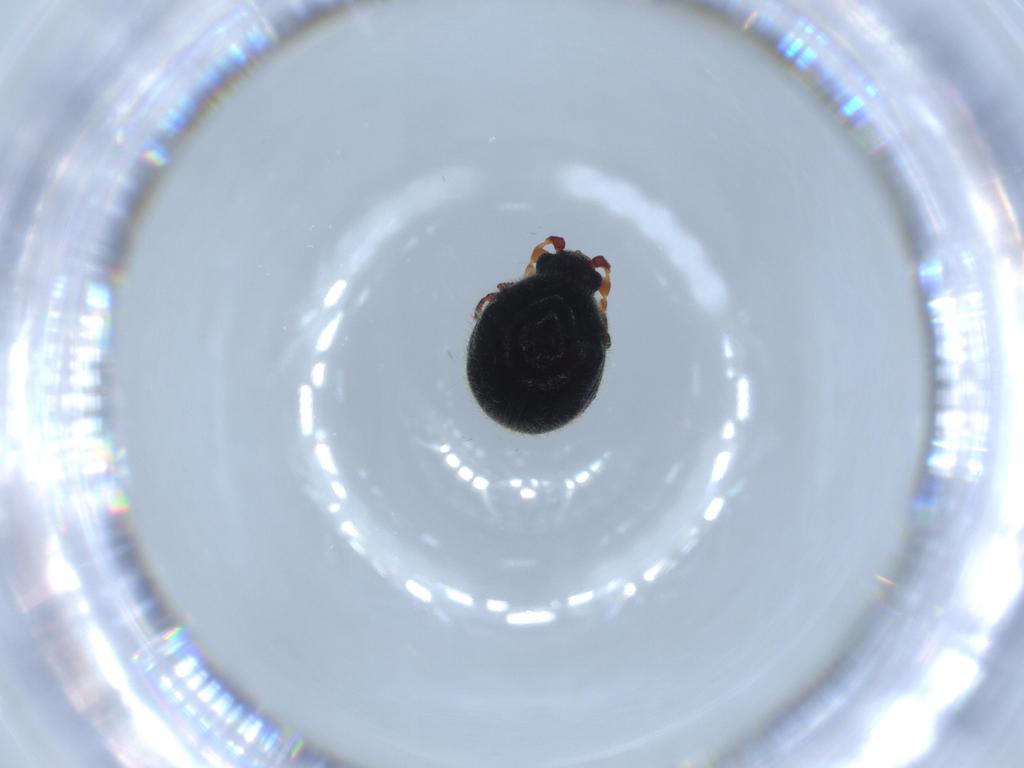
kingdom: Animalia
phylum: Arthropoda
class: Insecta
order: Coleoptera
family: Ptinidae
